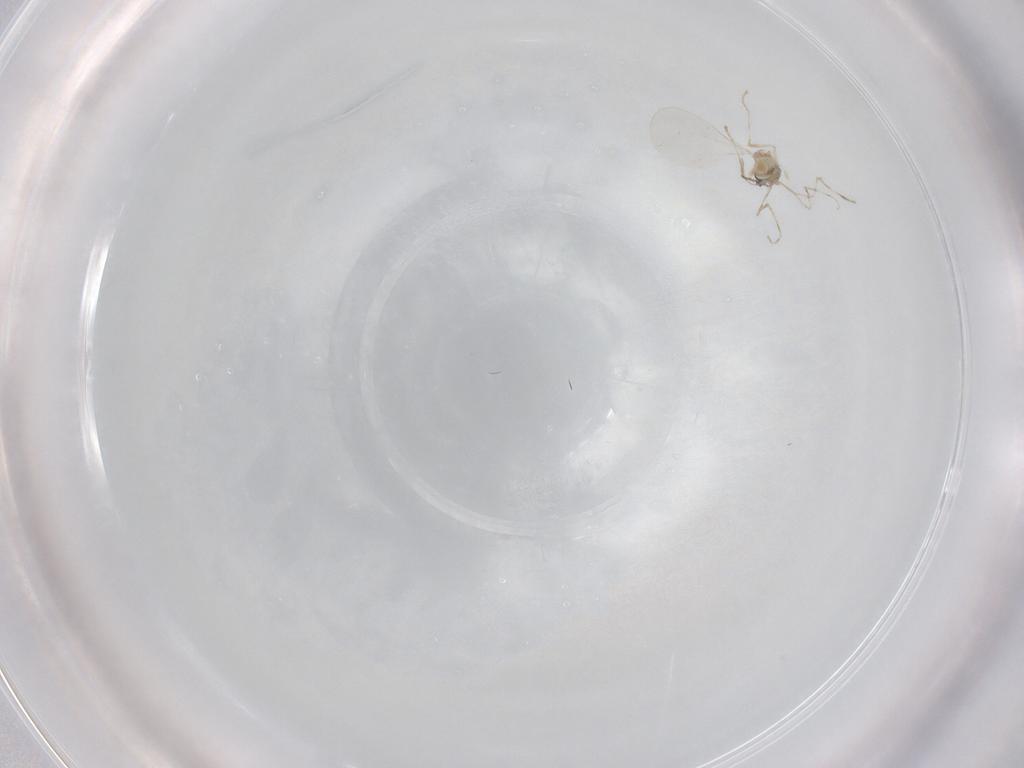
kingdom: Animalia
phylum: Arthropoda
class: Insecta
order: Diptera
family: Cecidomyiidae
